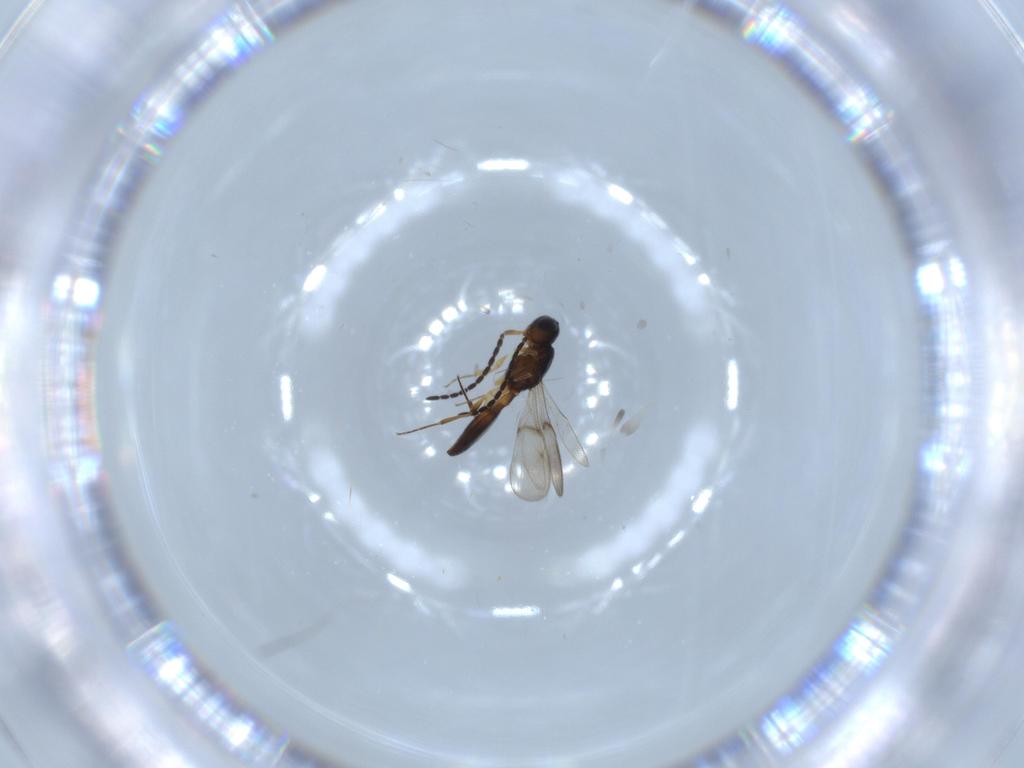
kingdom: Animalia
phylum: Arthropoda
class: Insecta
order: Hymenoptera
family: Scelionidae
